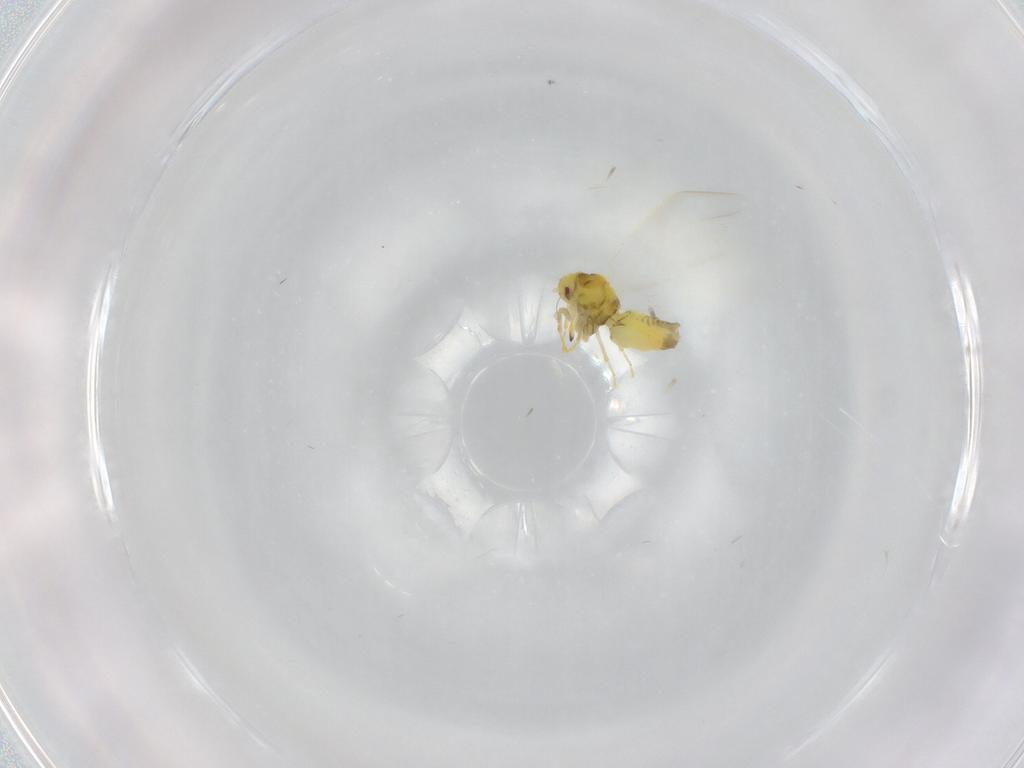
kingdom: Animalia
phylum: Arthropoda
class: Insecta
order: Hemiptera
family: Aleyrodidae
